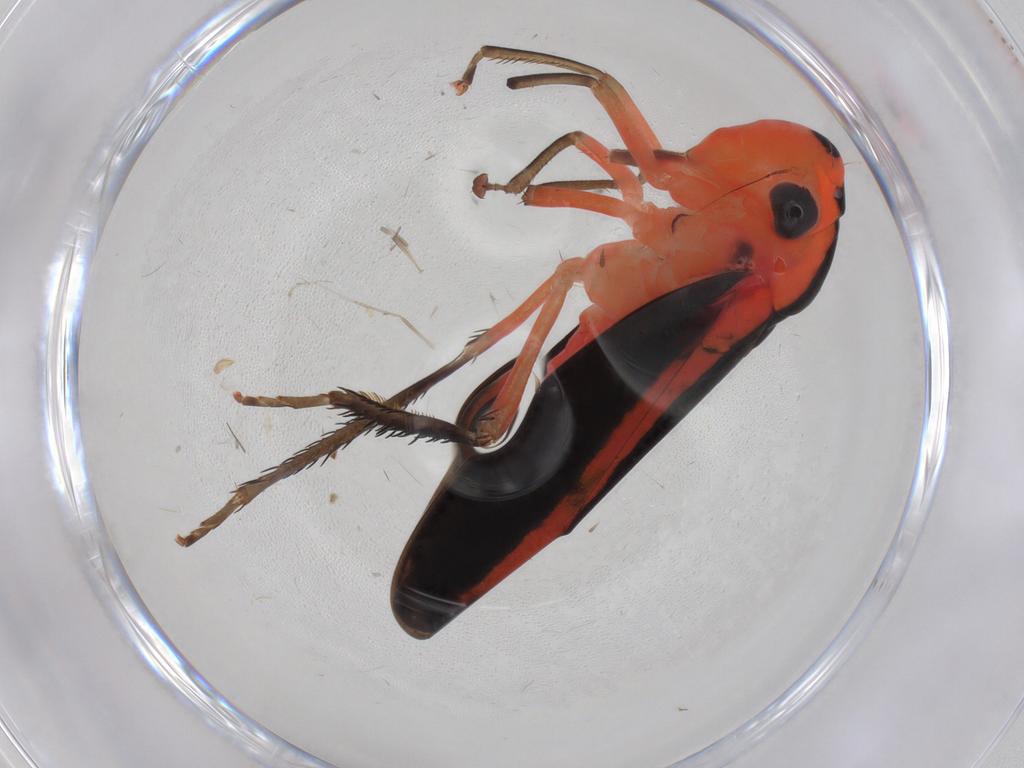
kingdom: Animalia
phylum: Arthropoda
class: Insecta
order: Hemiptera
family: Cicadellidae
